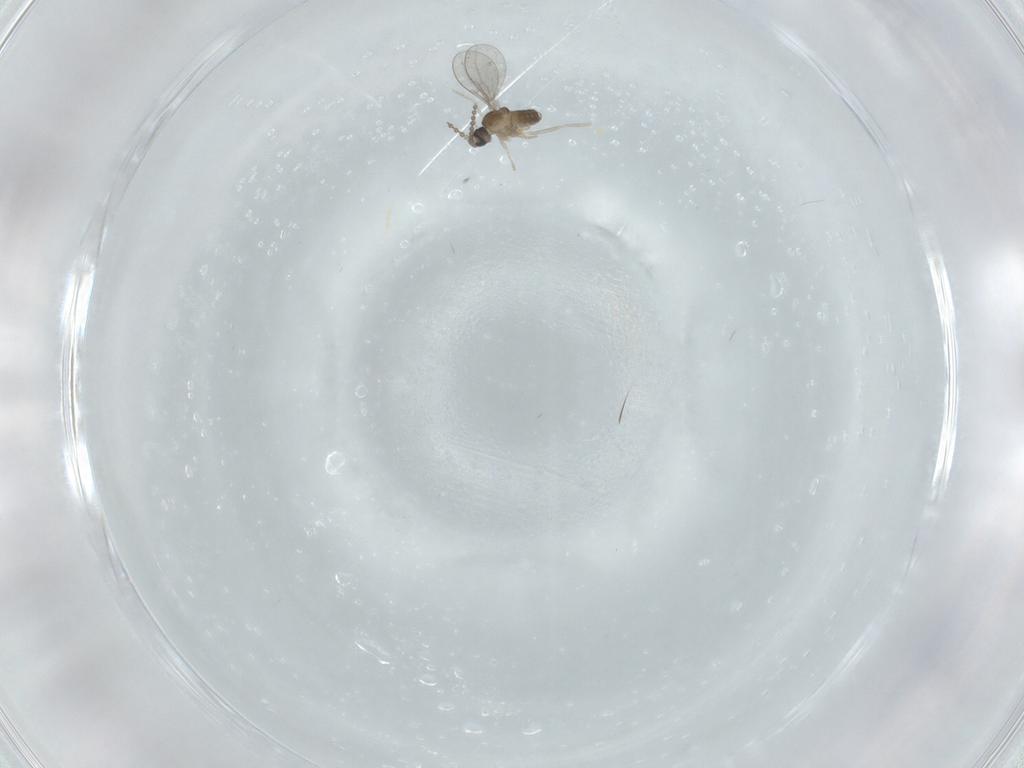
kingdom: Animalia
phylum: Arthropoda
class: Insecta
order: Diptera
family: Cecidomyiidae
